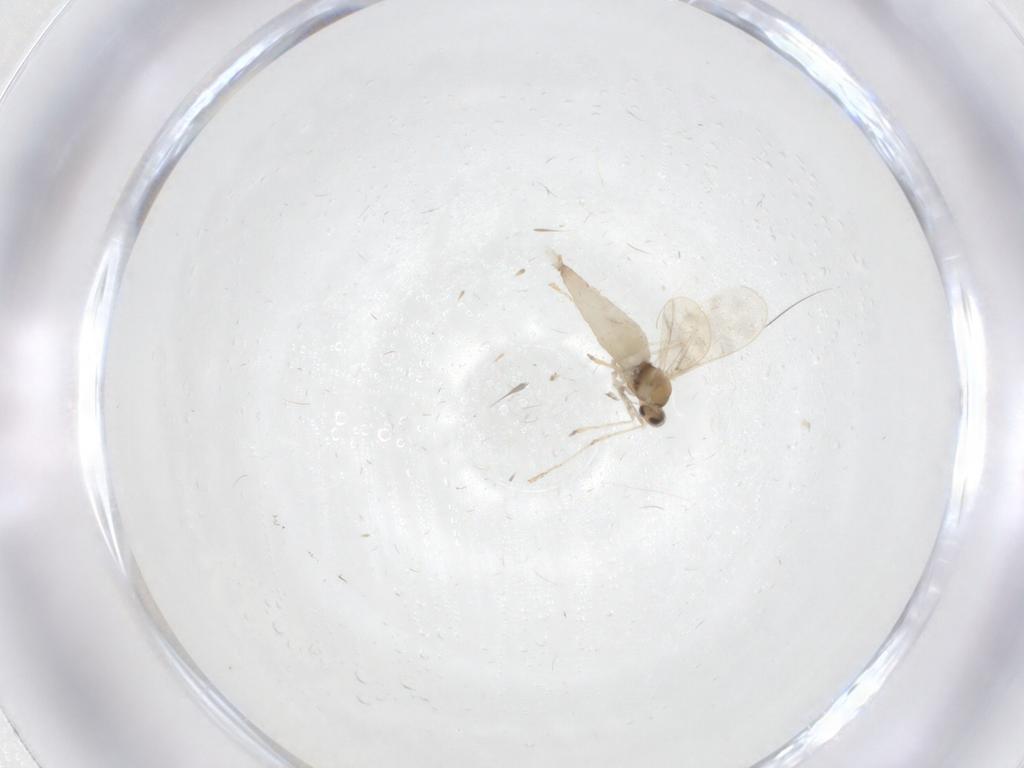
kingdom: Animalia
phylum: Arthropoda
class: Insecta
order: Diptera
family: Cecidomyiidae
